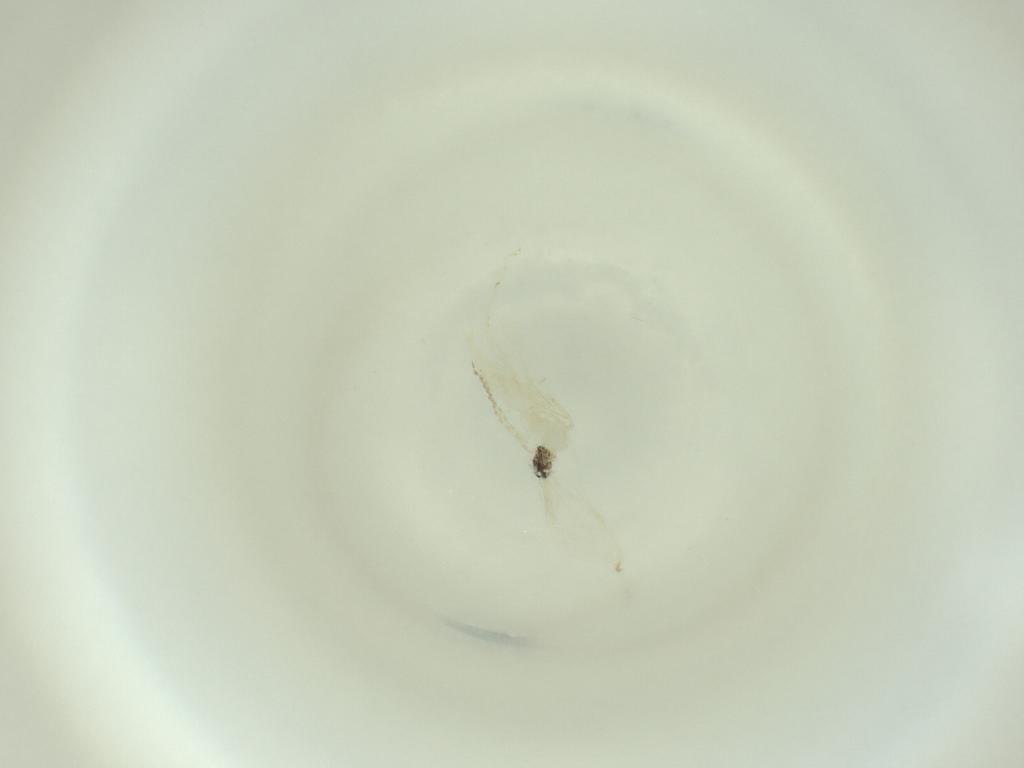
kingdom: Animalia
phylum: Arthropoda
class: Insecta
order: Diptera
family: Cecidomyiidae
